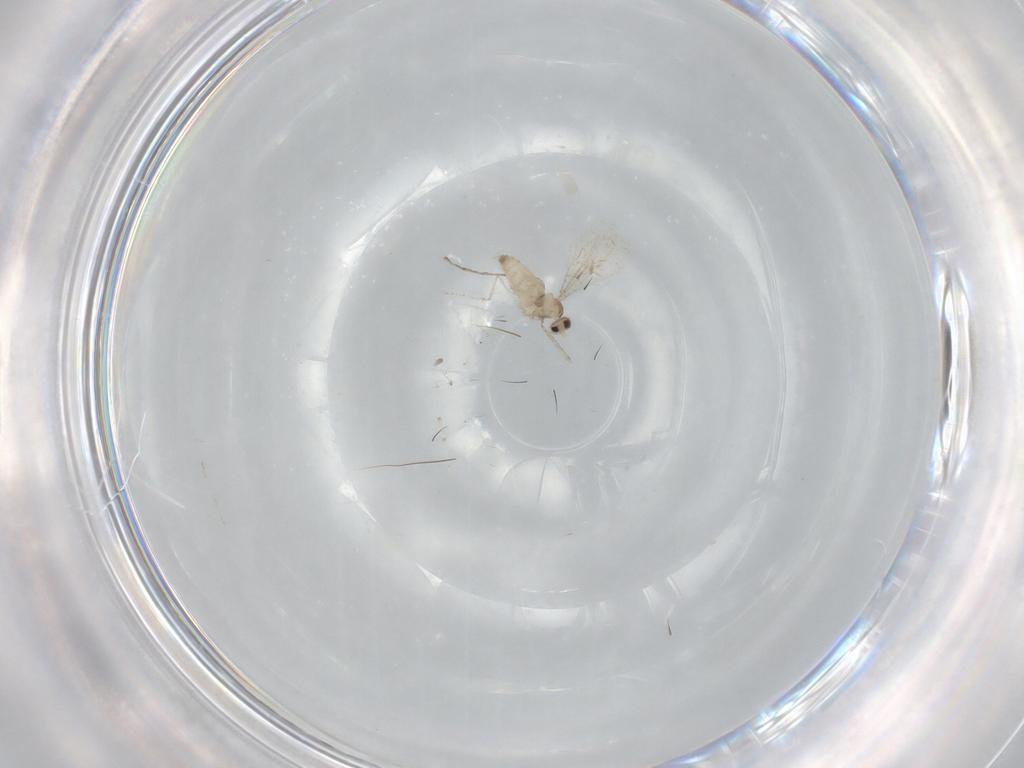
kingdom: Animalia
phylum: Arthropoda
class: Insecta
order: Diptera
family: Cecidomyiidae
